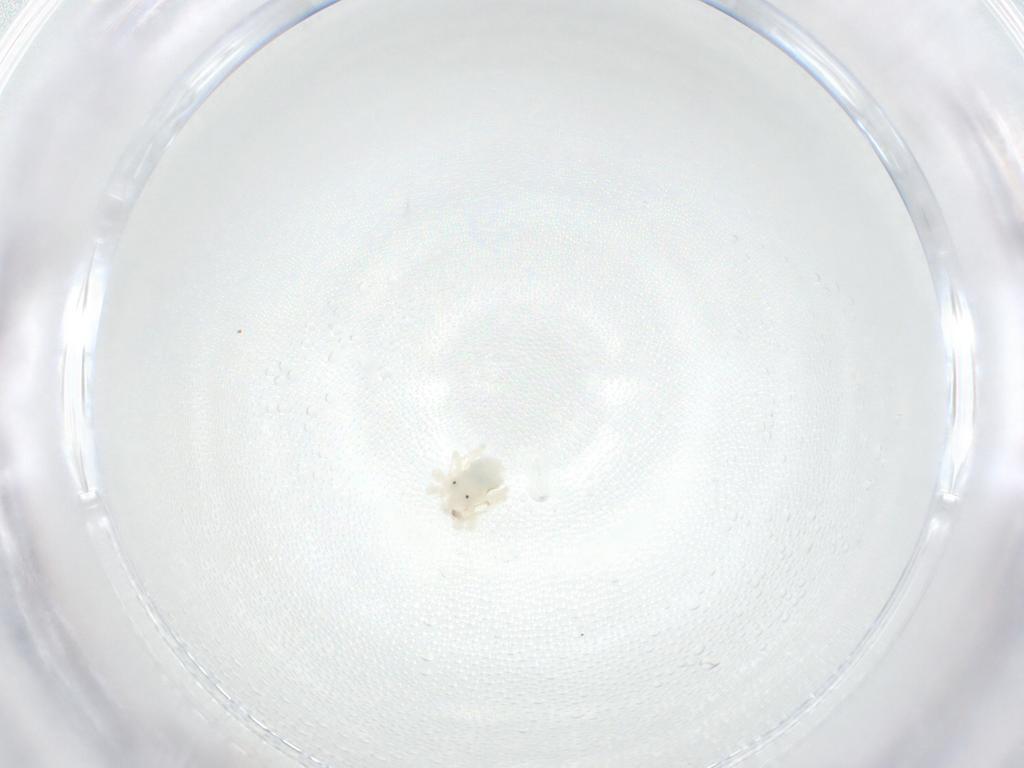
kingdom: Animalia
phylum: Arthropoda
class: Arachnida
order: Trombidiformes
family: Anystidae
